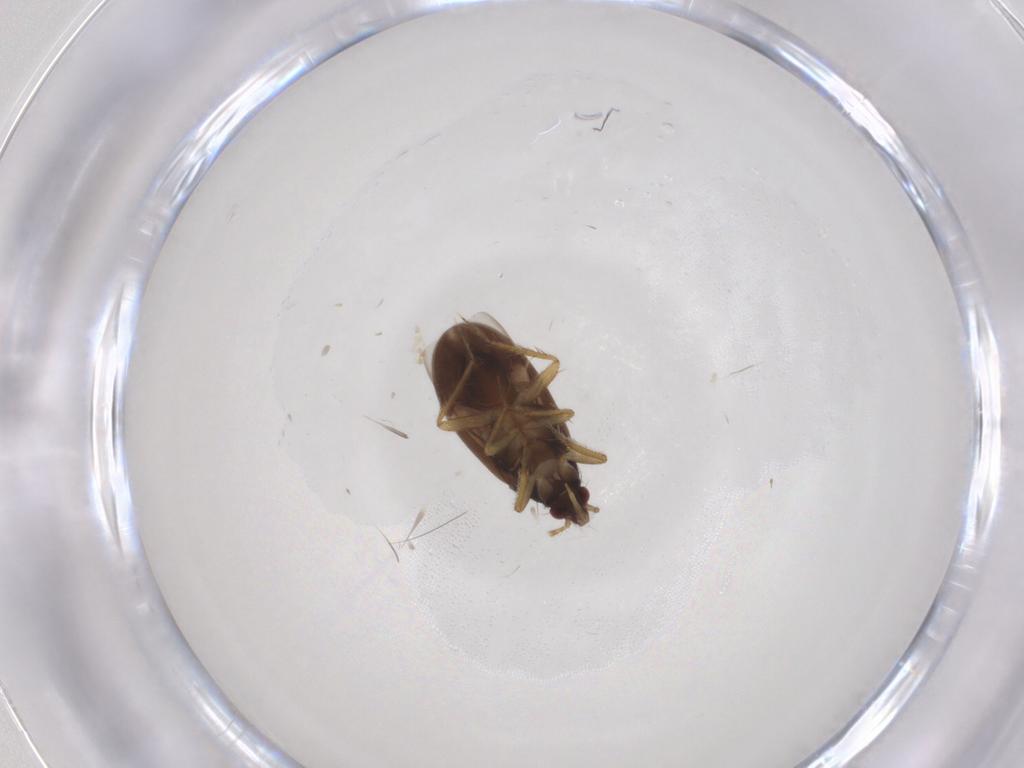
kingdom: Animalia
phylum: Arthropoda
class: Insecta
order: Hemiptera
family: Ceratocombidae
